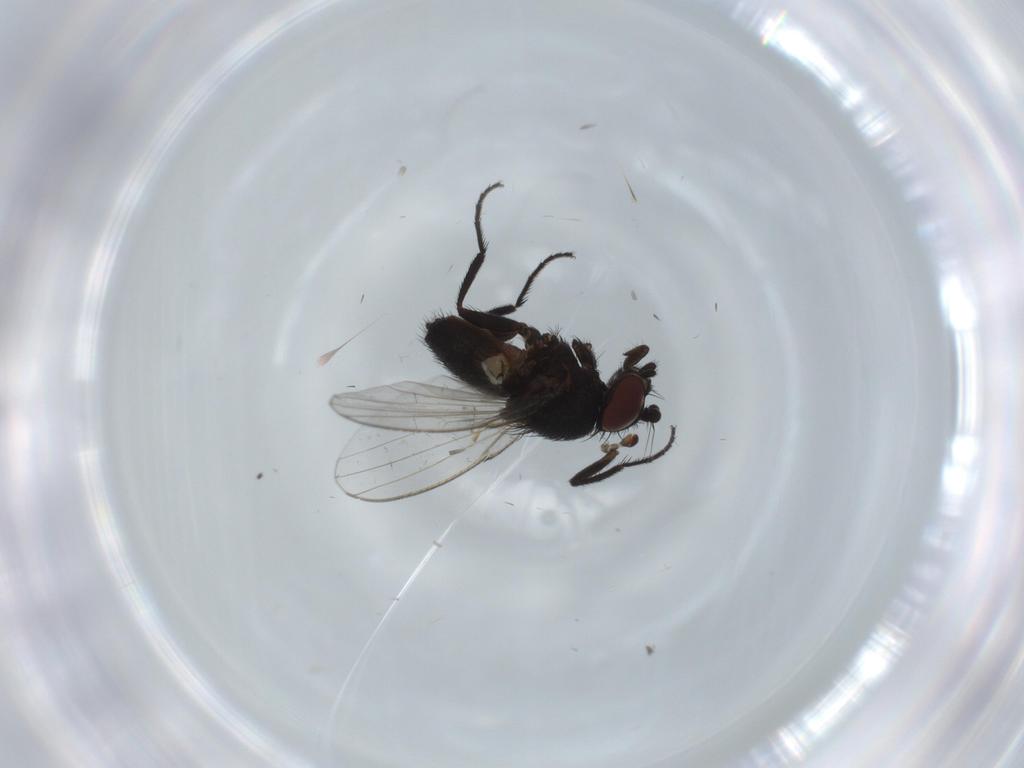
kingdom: Animalia
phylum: Arthropoda
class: Insecta
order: Diptera
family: Milichiidae
